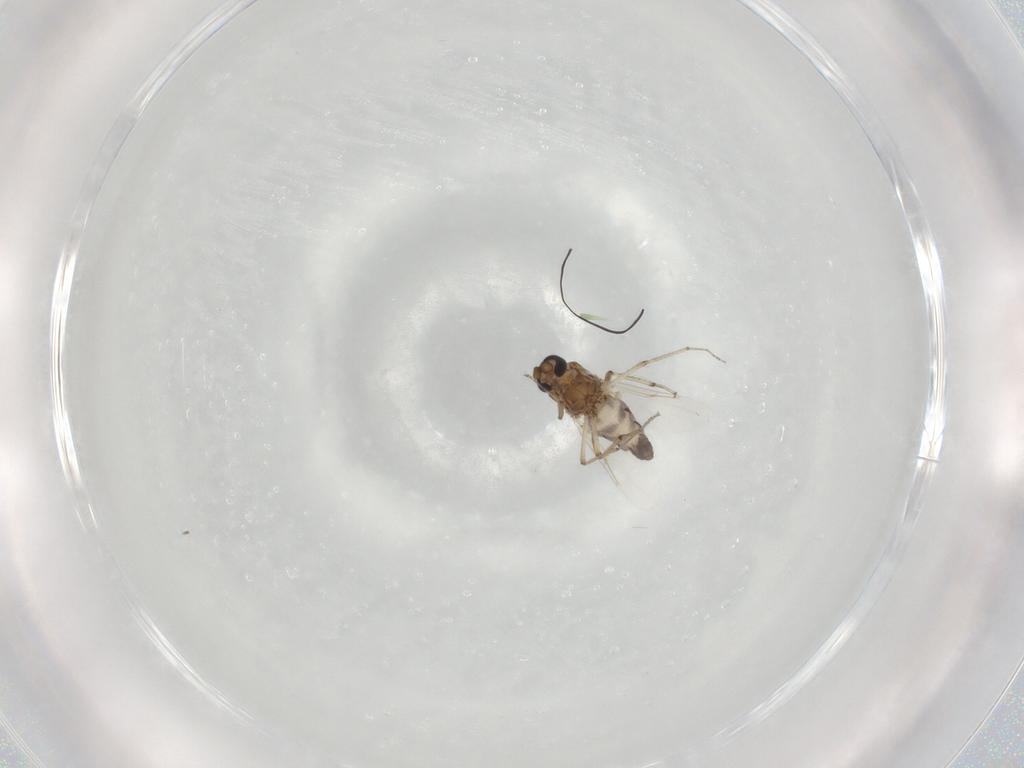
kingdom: Animalia
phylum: Arthropoda
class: Insecta
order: Diptera
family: Ceratopogonidae
